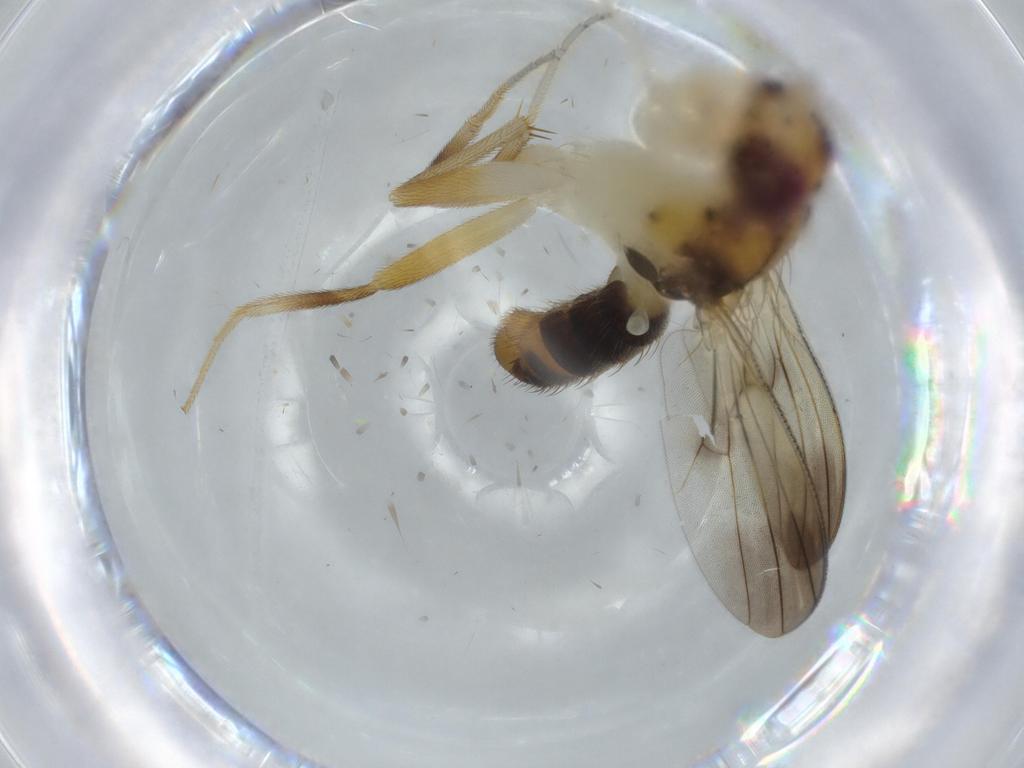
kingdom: Animalia
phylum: Arthropoda
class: Insecta
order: Diptera
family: Clusiidae
